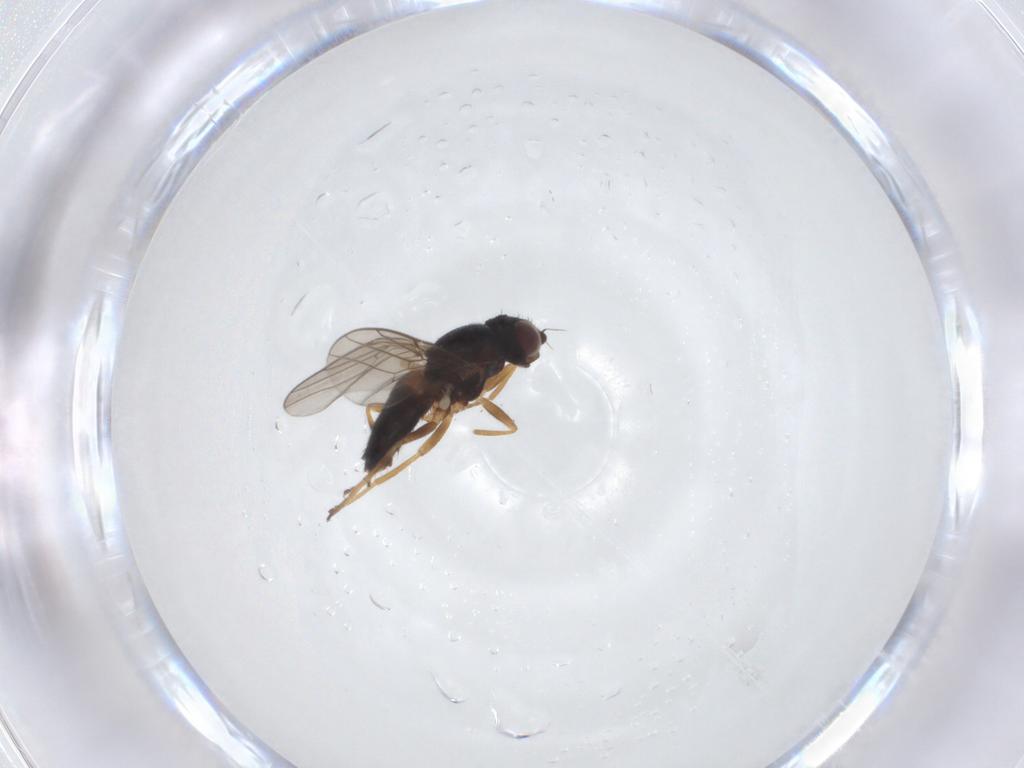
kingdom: Animalia
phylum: Arthropoda
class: Insecta
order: Diptera
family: Chloropidae
